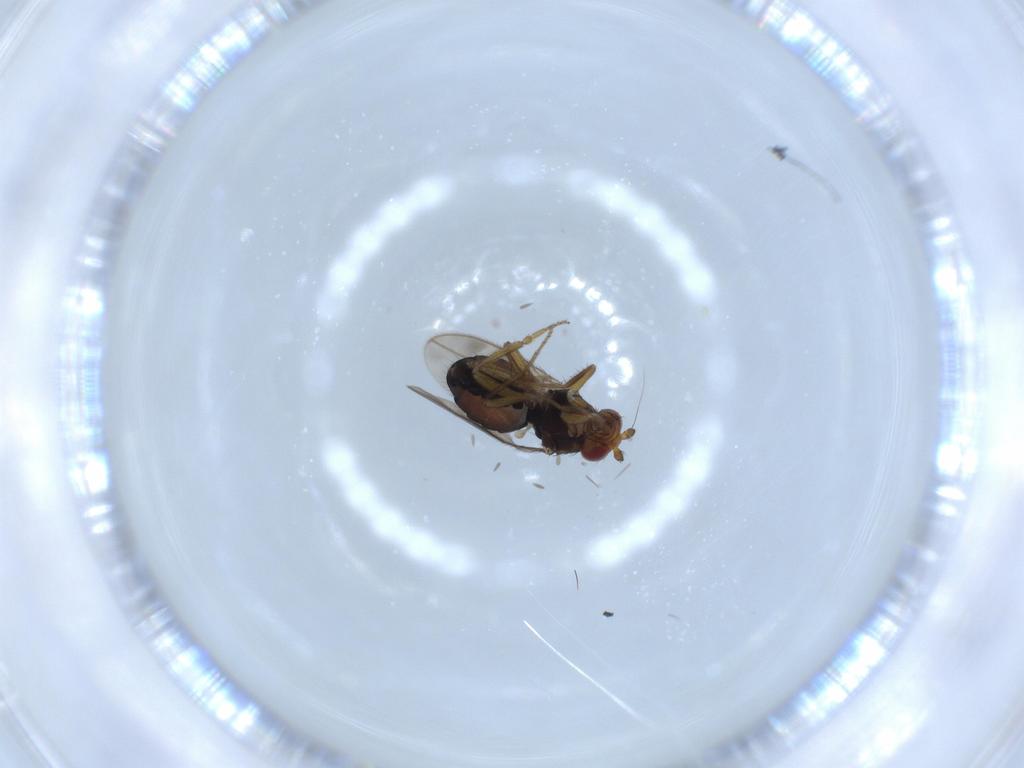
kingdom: Animalia
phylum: Arthropoda
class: Insecta
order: Diptera
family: Sphaeroceridae
